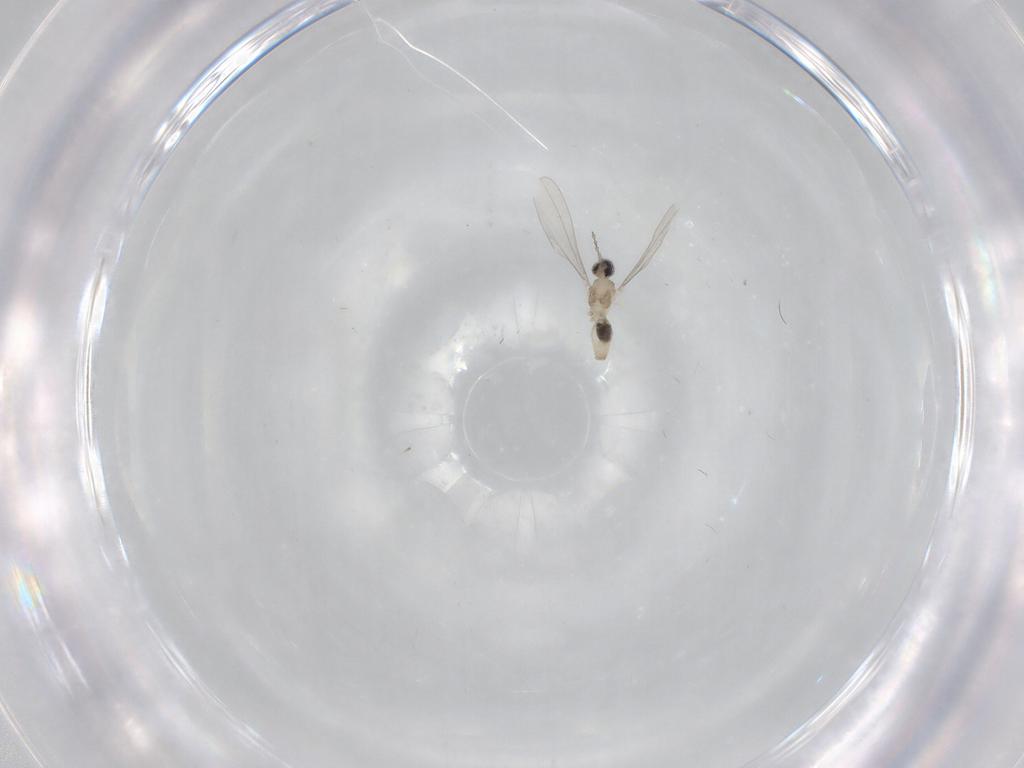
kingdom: Animalia
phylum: Arthropoda
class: Insecta
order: Diptera
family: Cecidomyiidae
